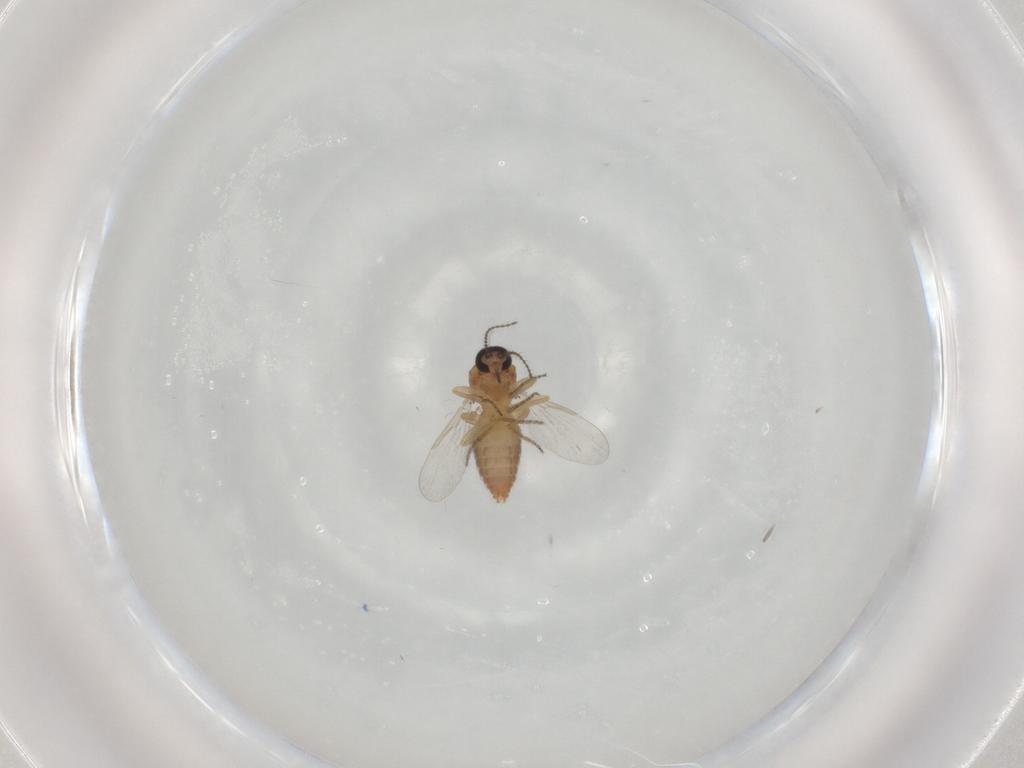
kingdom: Animalia
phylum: Arthropoda
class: Insecta
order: Diptera
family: Ceratopogonidae
